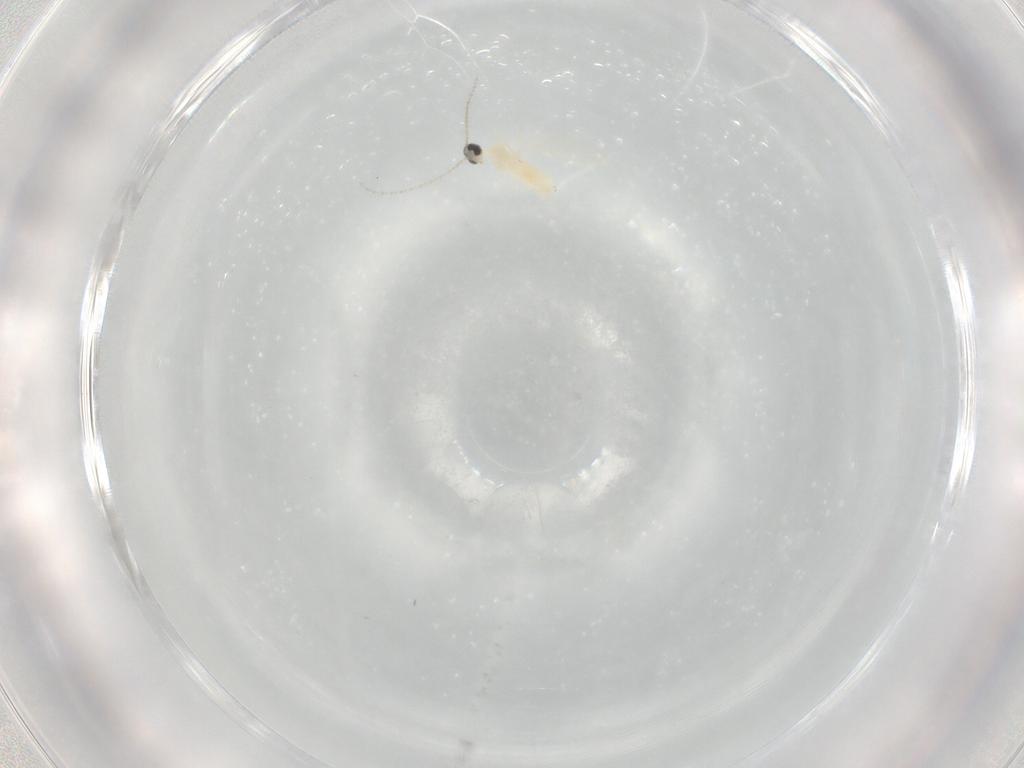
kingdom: Animalia
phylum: Arthropoda
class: Insecta
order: Diptera
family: Cecidomyiidae
